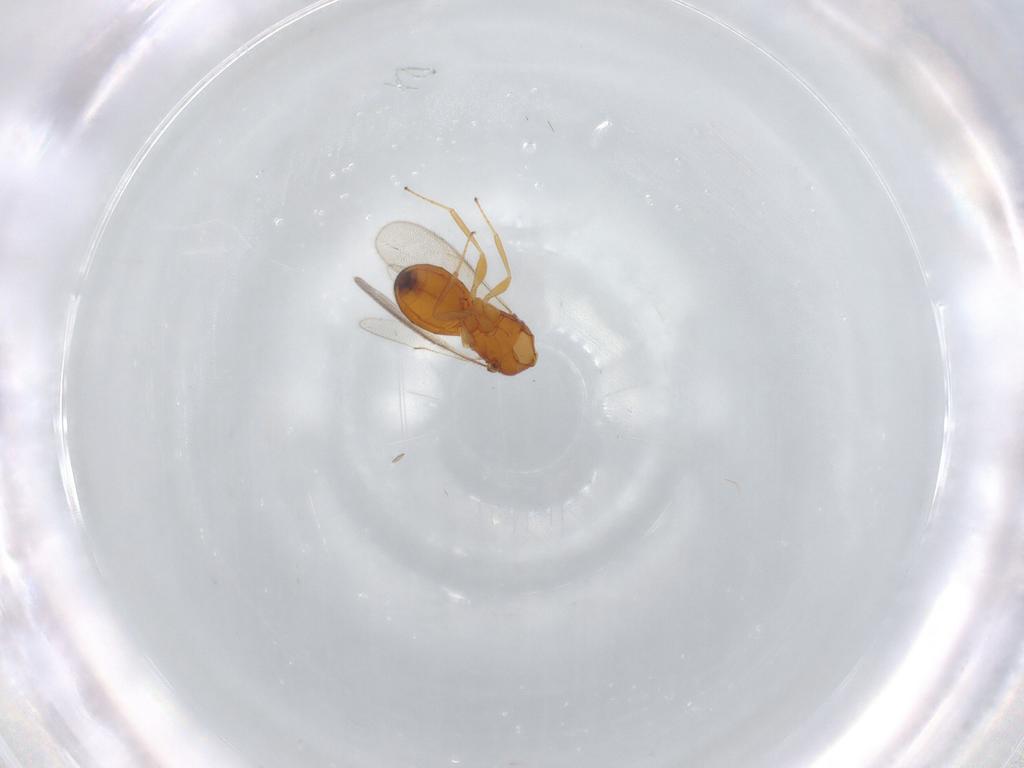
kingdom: Animalia
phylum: Arthropoda
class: Insecta
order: Hymenoptera
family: Scelionidae
